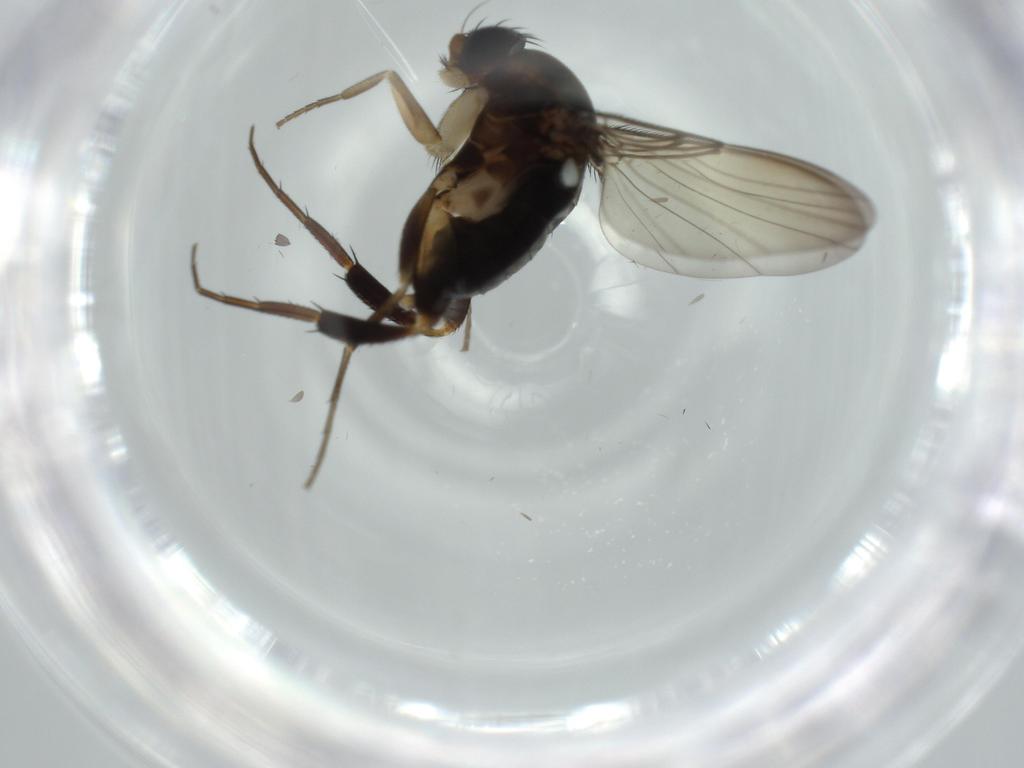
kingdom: Animalia
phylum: Arthropoda
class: Insecta
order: Diptera
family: Phoridae
